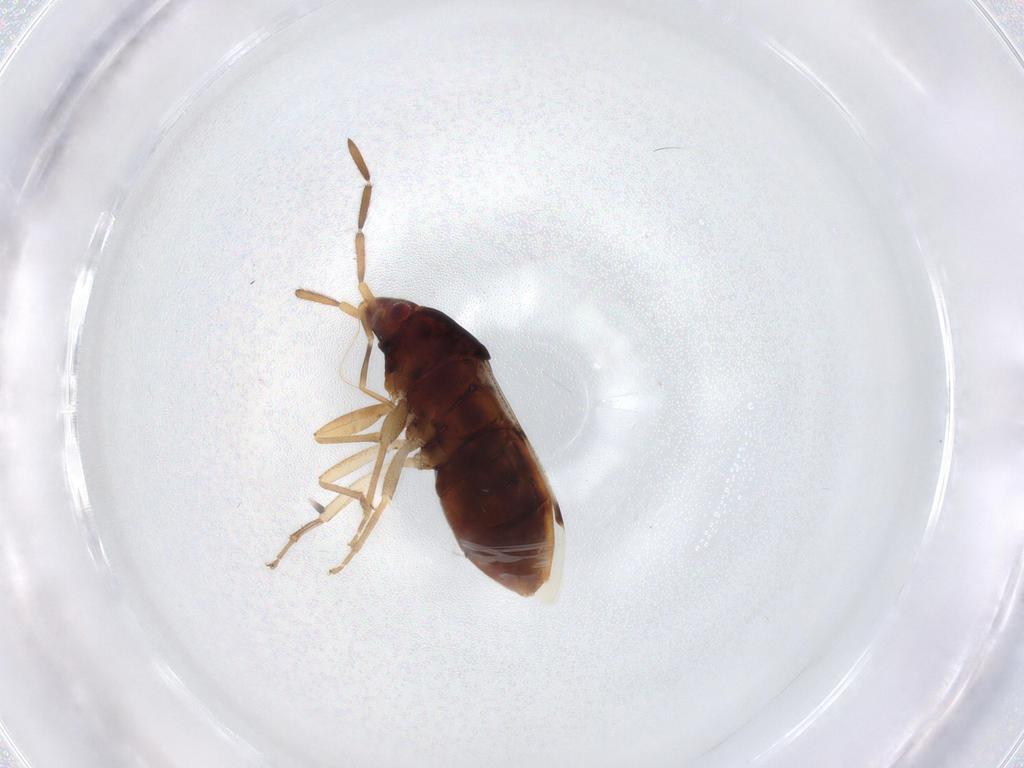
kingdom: Animalia
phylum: Arthropoda
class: Insecta
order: Hemiptera
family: Rhyparochromidae
